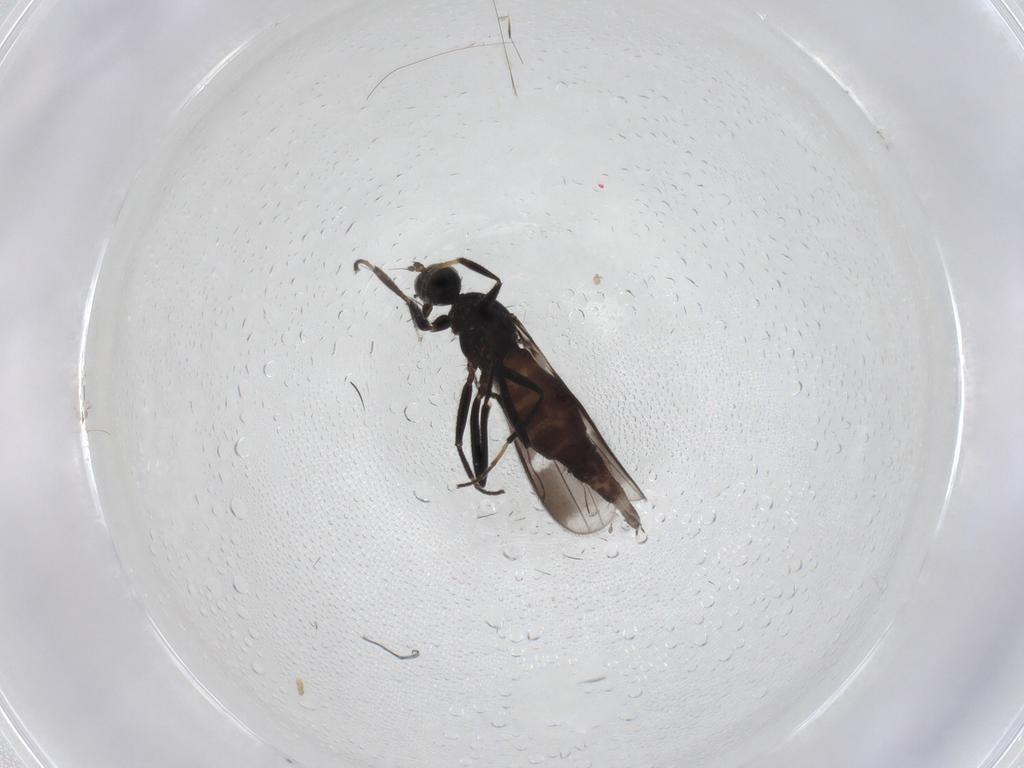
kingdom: Animalia
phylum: Arthropoda
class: Insecta
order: Diptera
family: Hybotidae
